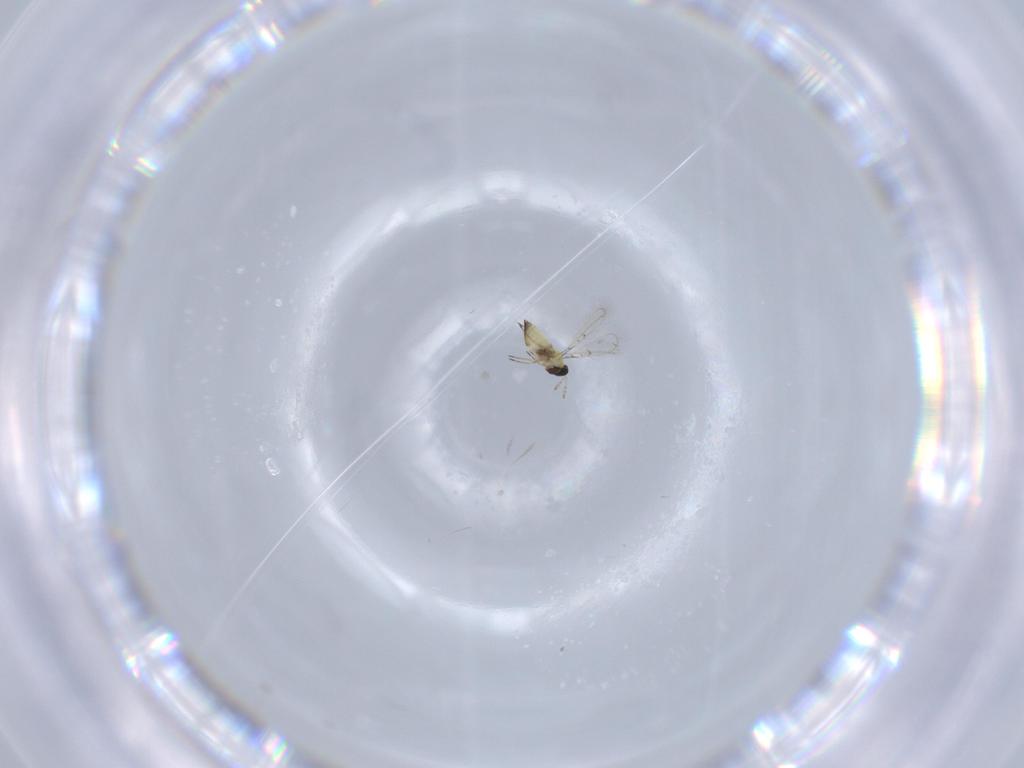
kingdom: Animalia
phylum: Arthropoda
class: Insecta
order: Hymenoptera
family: Trichogrammatidae
